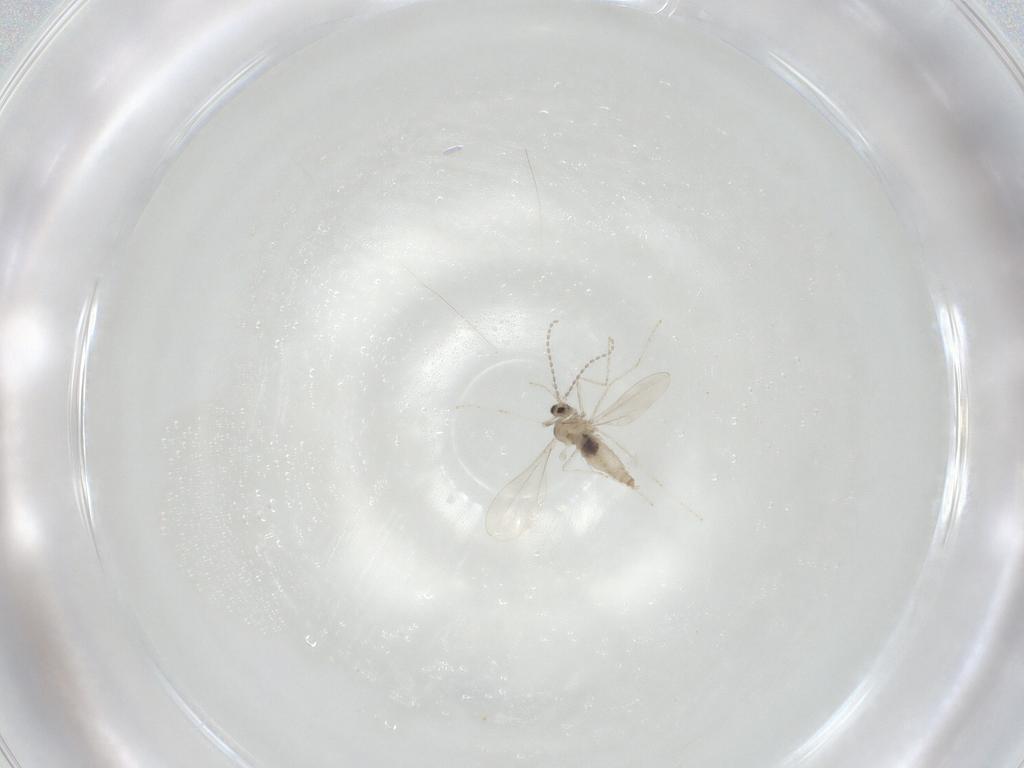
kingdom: Animalia
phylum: Arthropoda
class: Insecta
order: Diptera
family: Cecidomyiidae
